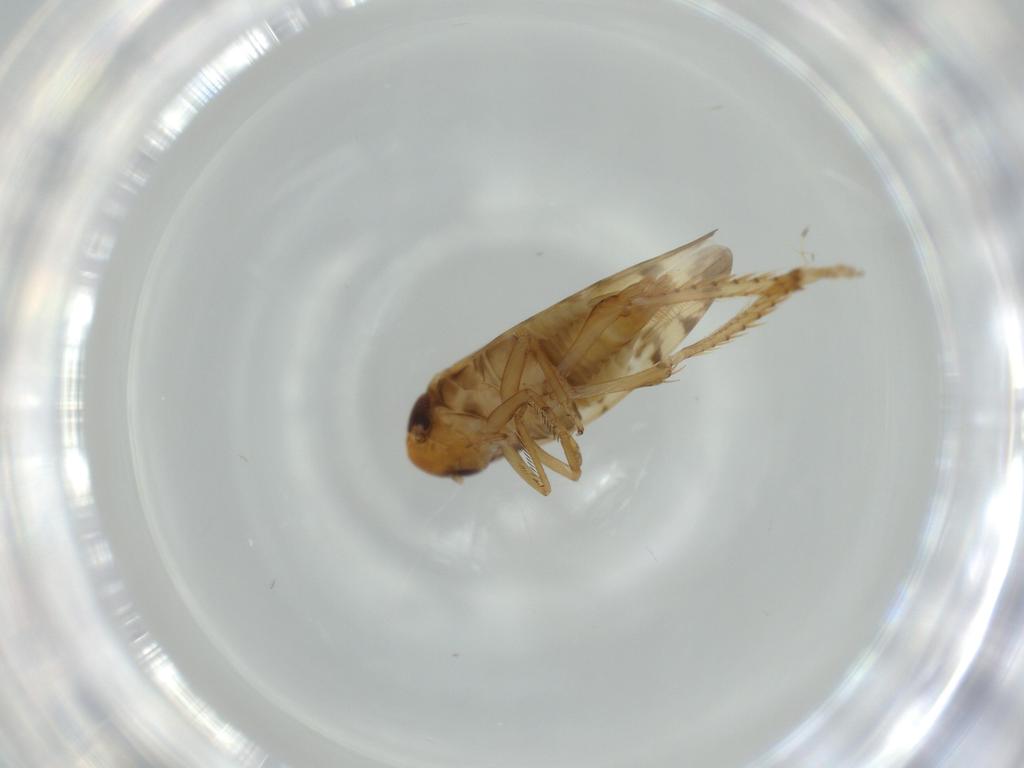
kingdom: Animalia
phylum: Arthropoda
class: Insecta
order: Hemiptera
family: Cicadellidae
